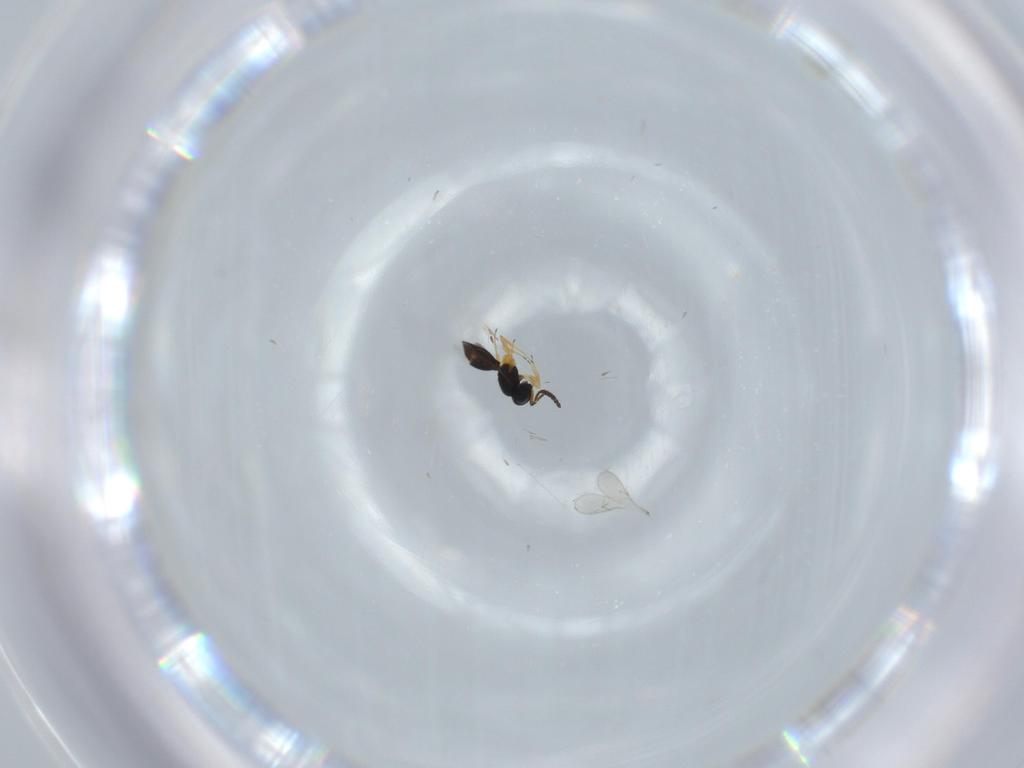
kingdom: Animalia
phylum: Arthropoda
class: Insecta
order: Hymenoptera
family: Scelionidae
